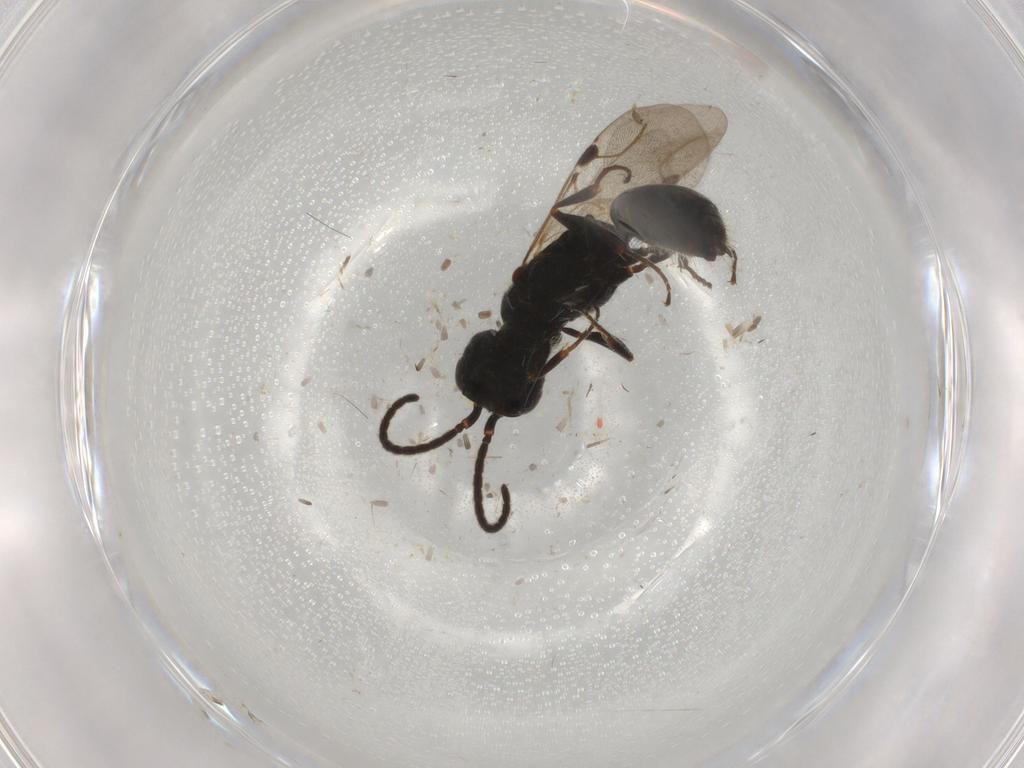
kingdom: Animalia
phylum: Arthropoda
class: Insecta
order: Hymenoptera
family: Bethylidae
